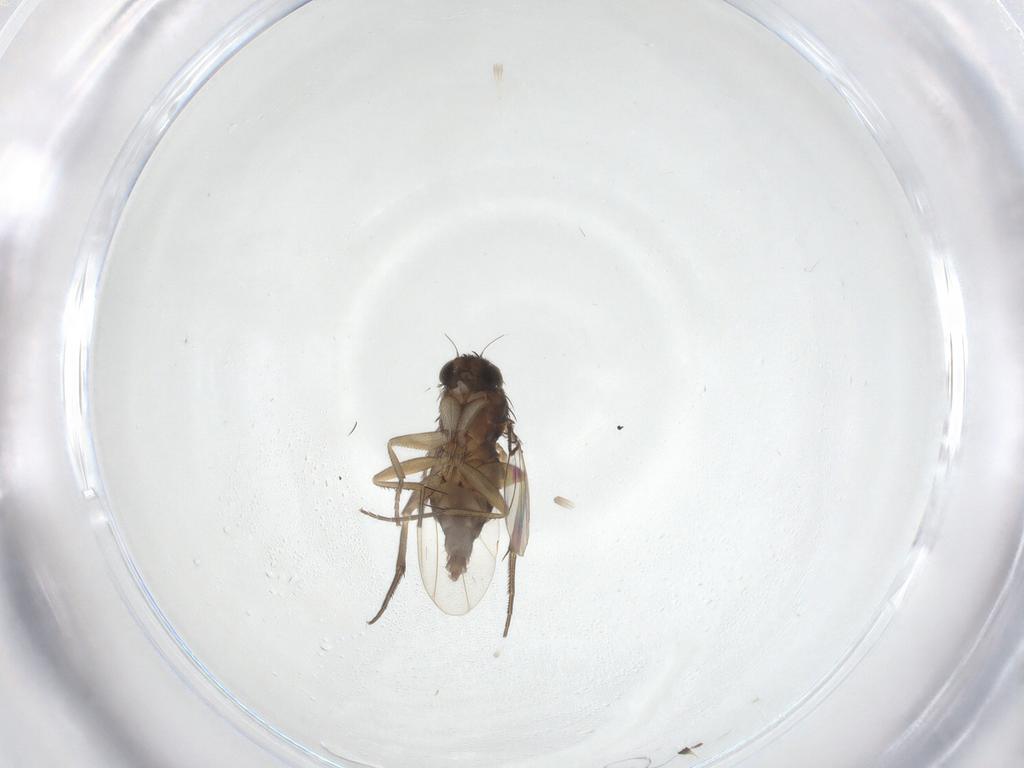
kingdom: Animalia
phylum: Arthropoda
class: Insecta
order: Diptera
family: Phoridae
